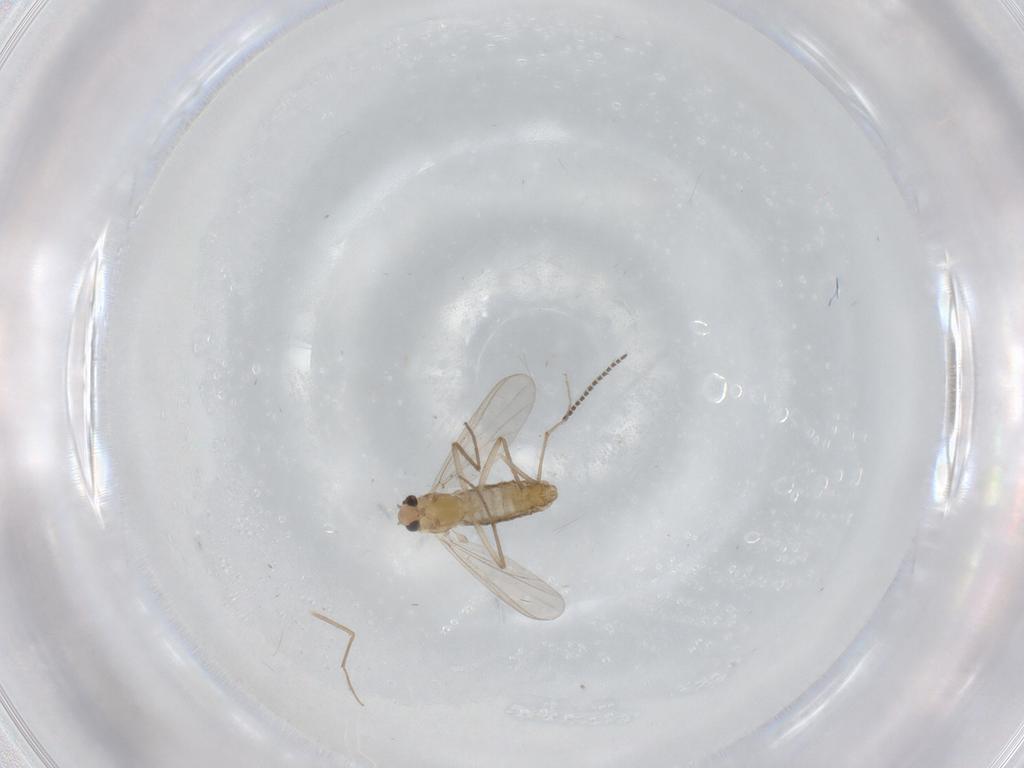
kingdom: Animalia
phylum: Arthropoda
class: Insecta
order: Diptera
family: Chironomidae
